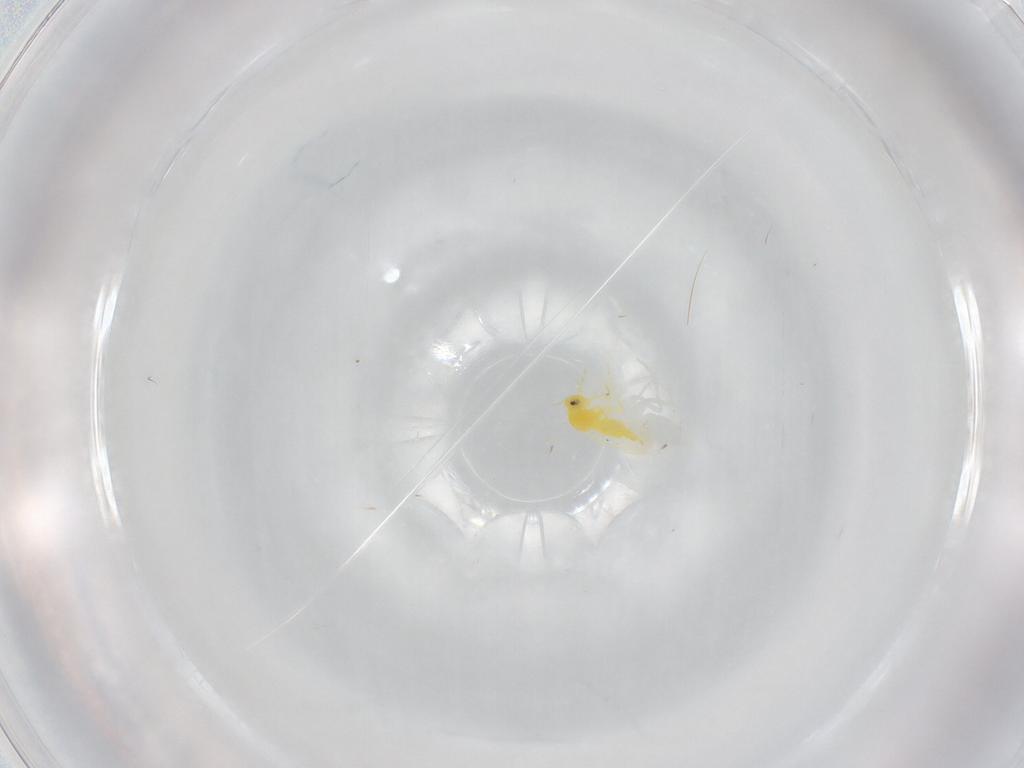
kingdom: Animalia
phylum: Arthropoda
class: Insecta
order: Hemiptera
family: Aleyrodidae
